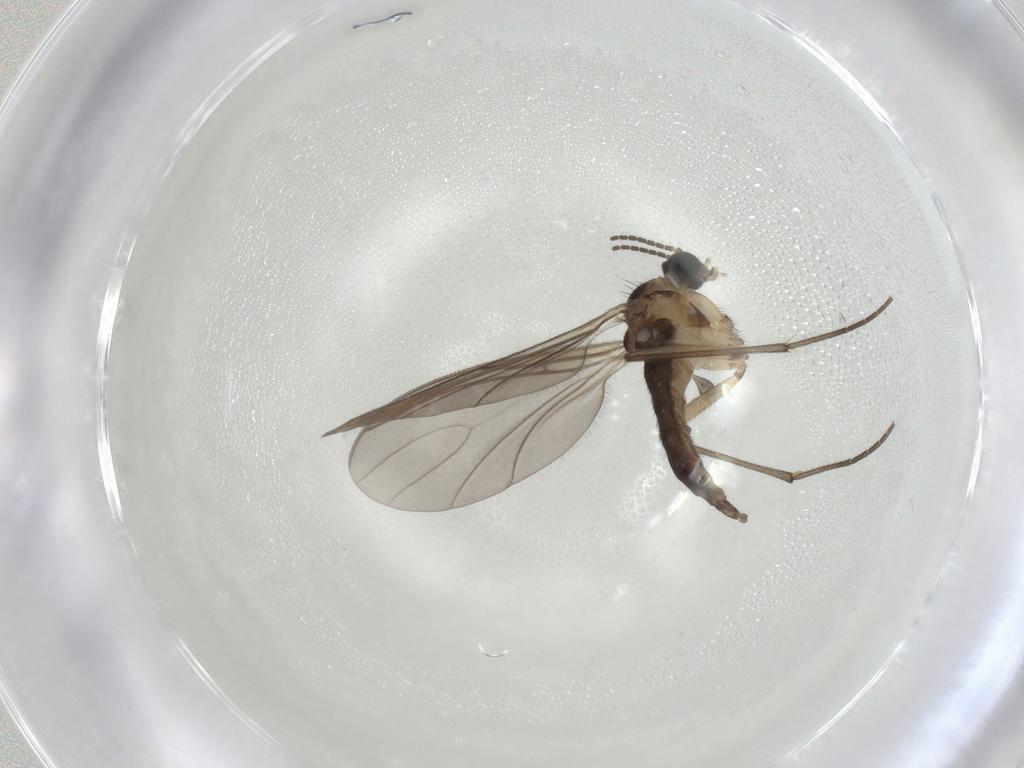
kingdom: Animalia
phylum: Arthropoda
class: Insecta
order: Diptera
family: Sciaridae
